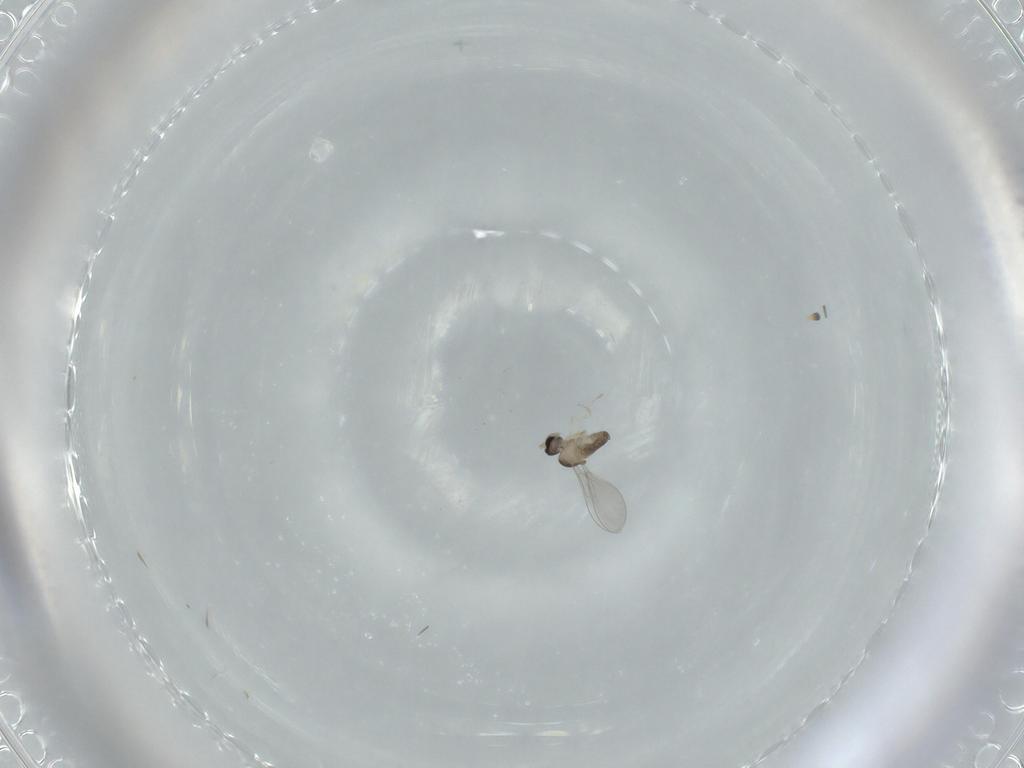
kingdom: Animalia
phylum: Arthropoda
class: Insecta
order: Diptera
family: Cecidomyiidae
